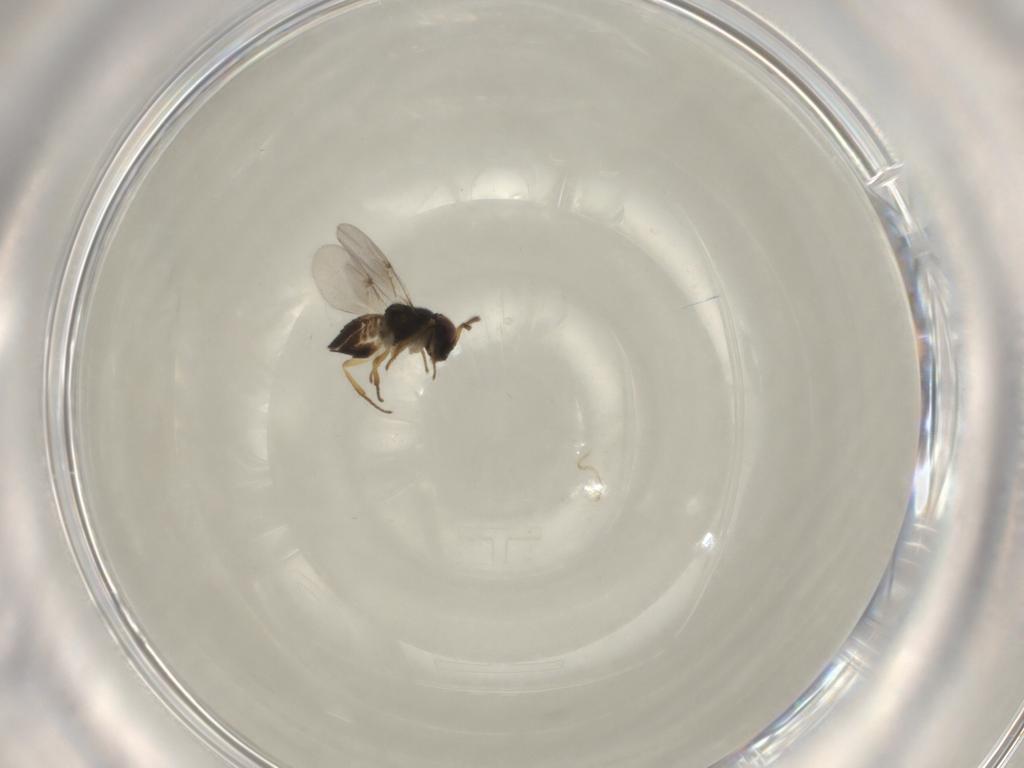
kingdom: Animalia
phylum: Arthropoda
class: Insecta
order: Hymenoptera
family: Encyrtidae
